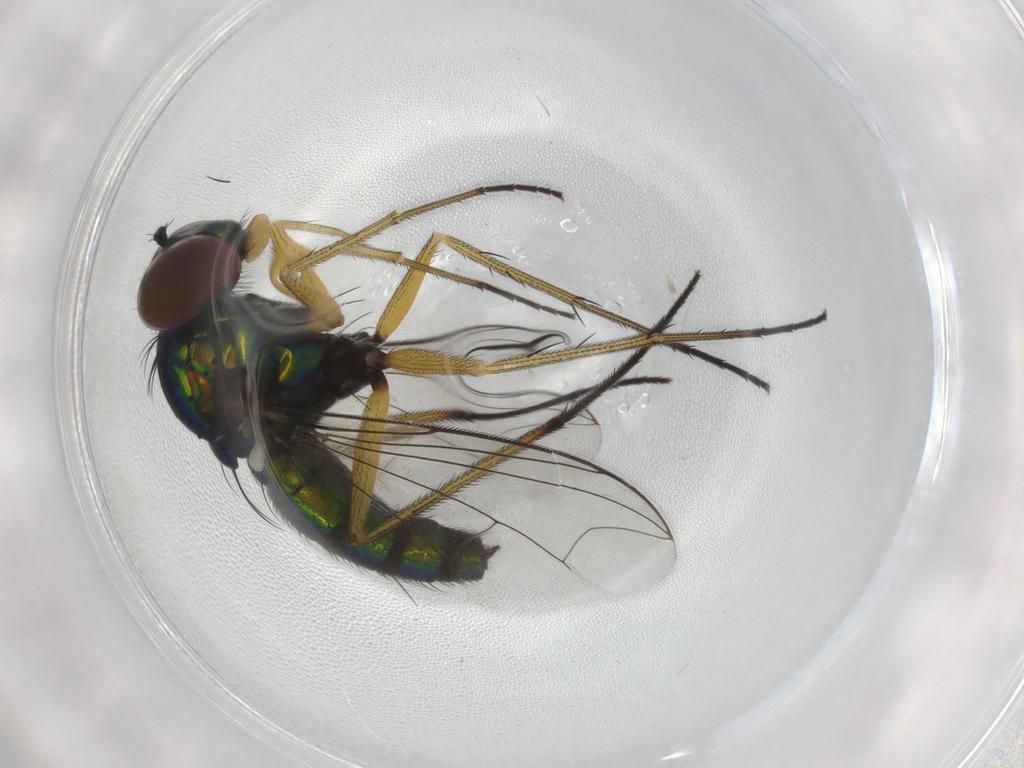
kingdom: Animalia
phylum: Arthropoda
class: Insecta
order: Diptera
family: Dolichopodidae
